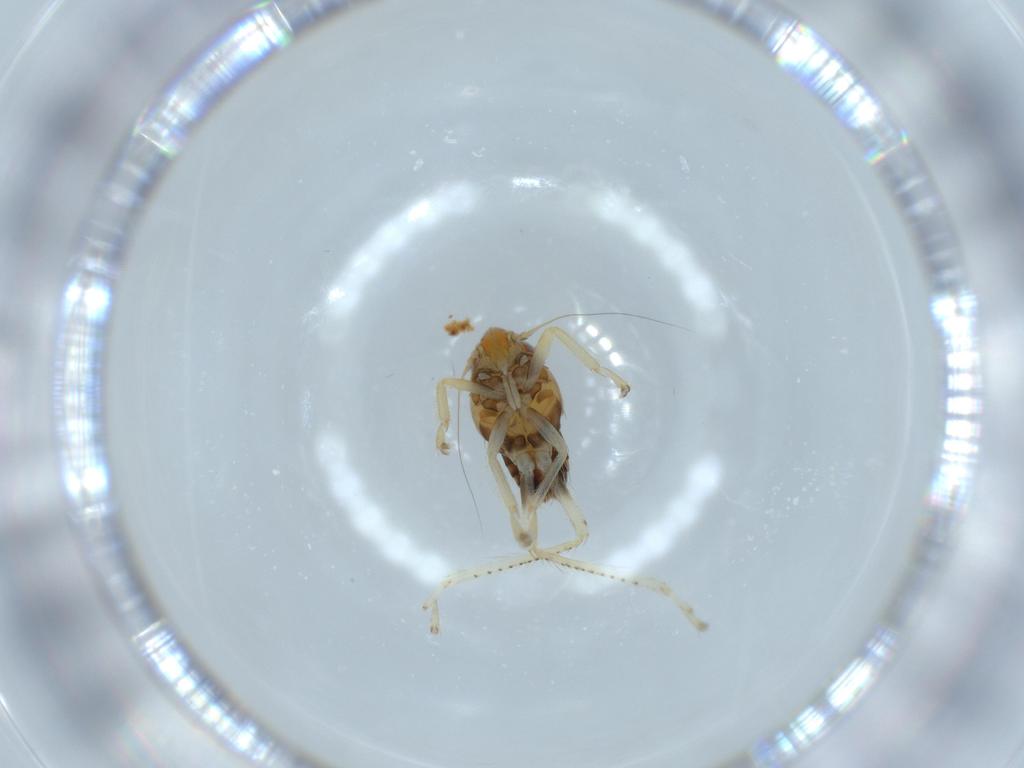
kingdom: Animalia
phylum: Arthropoda
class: Insecta
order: Hemiptera
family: Cicadellidae
